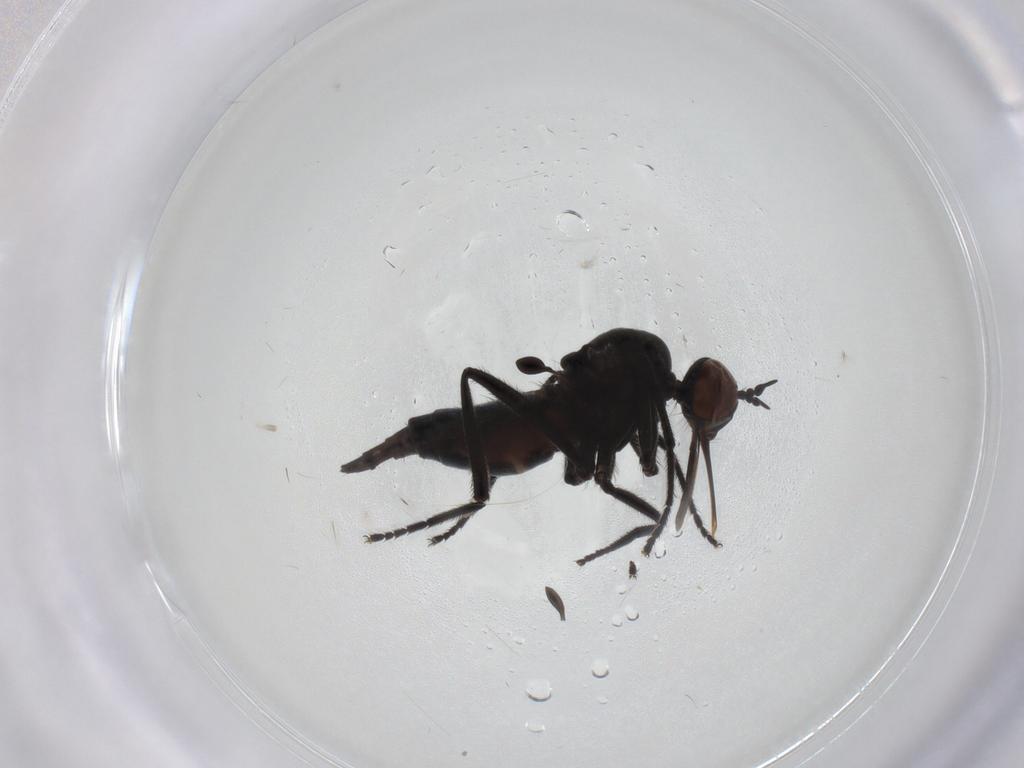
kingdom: Animalia
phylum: Arthropoda
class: Insecta
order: Diptera
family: Empididae
